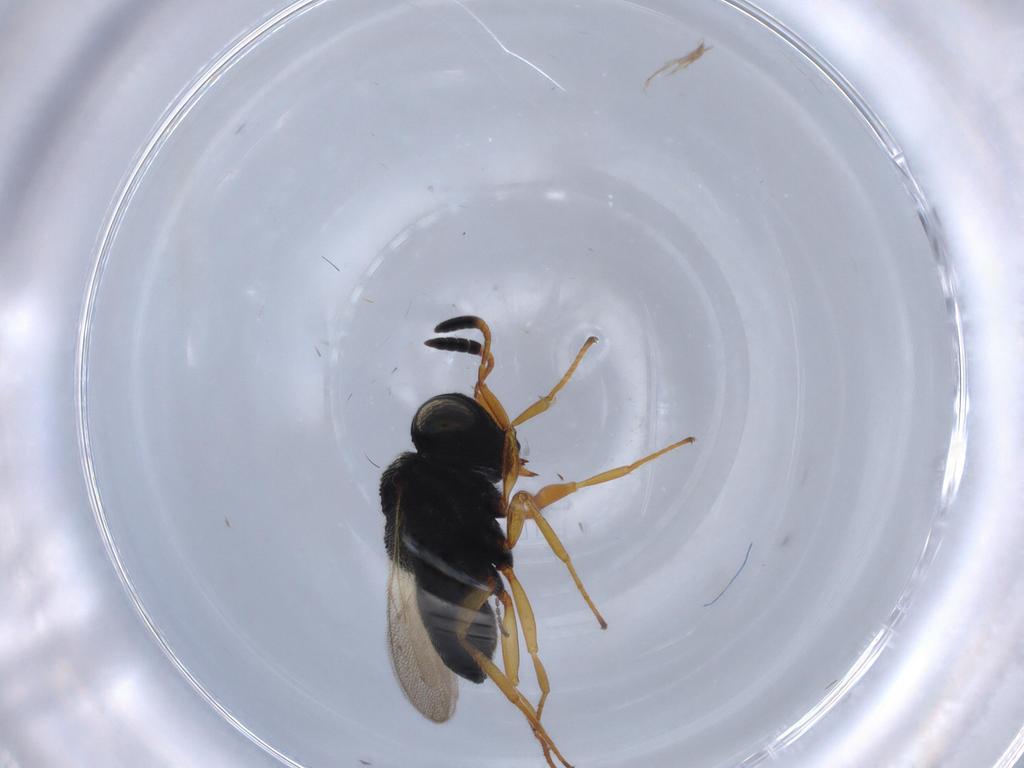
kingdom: Animalia
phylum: Arthropoda
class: Insecta
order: Hymenoptera
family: Scelionidae
